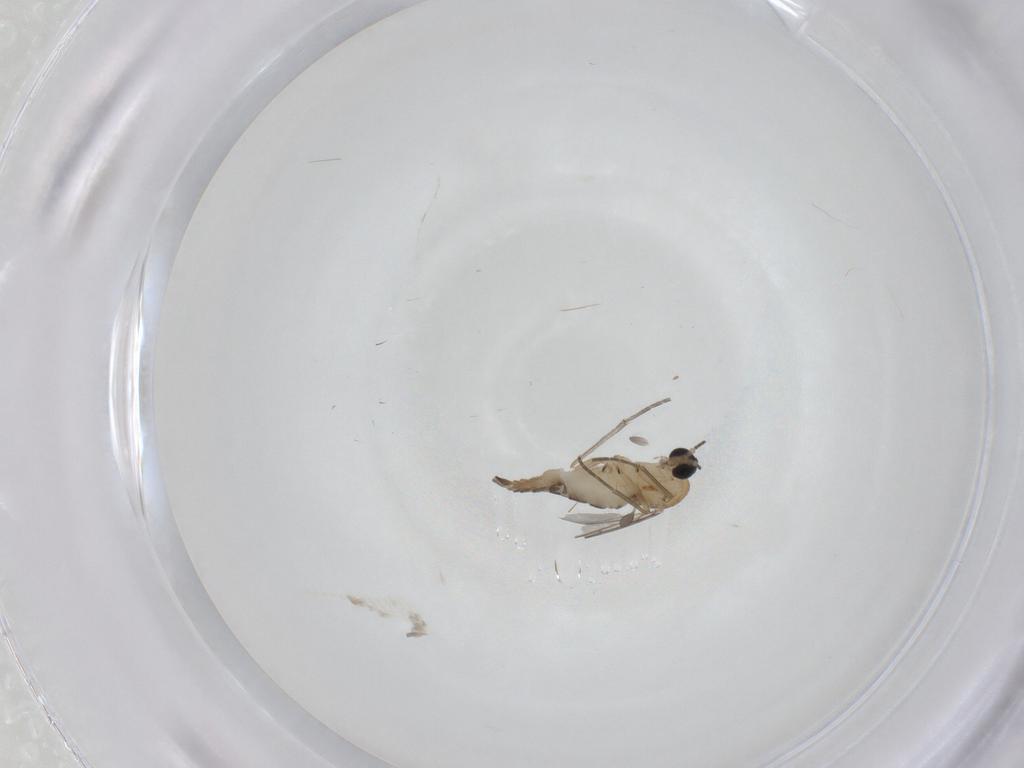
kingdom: Animalia
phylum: Arthropoda
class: Insecta
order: Diptera
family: Sciaridae
